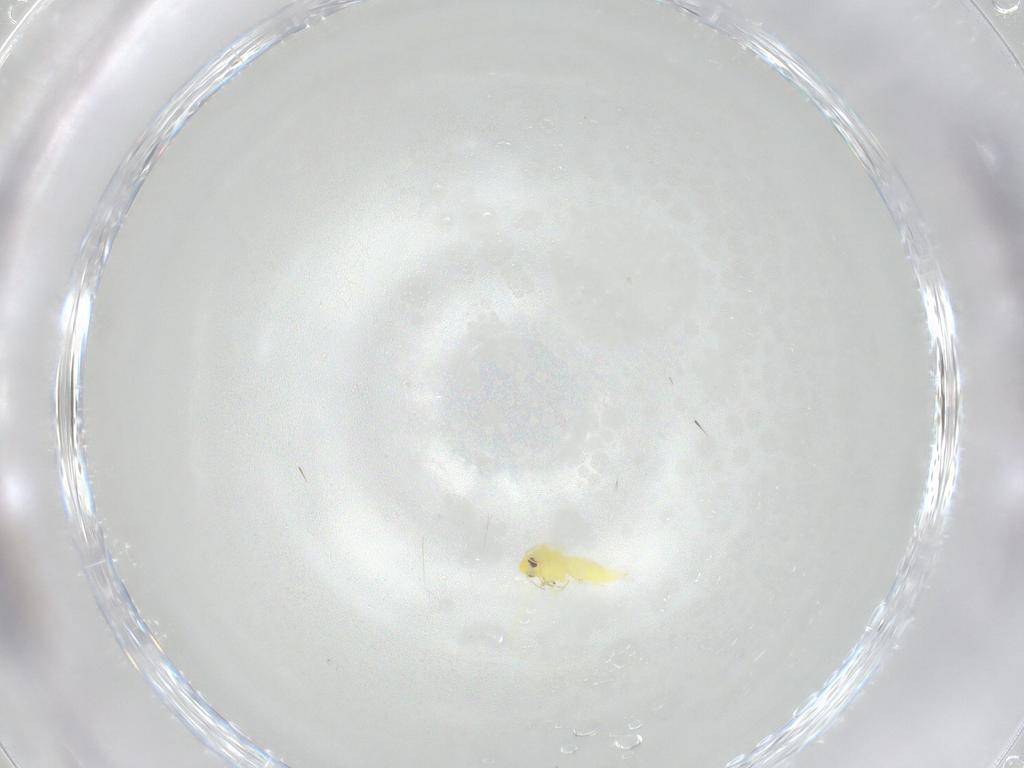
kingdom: Animalia
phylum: Arthropoda
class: Insecta
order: Hemiptera
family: Aleyrodidae
